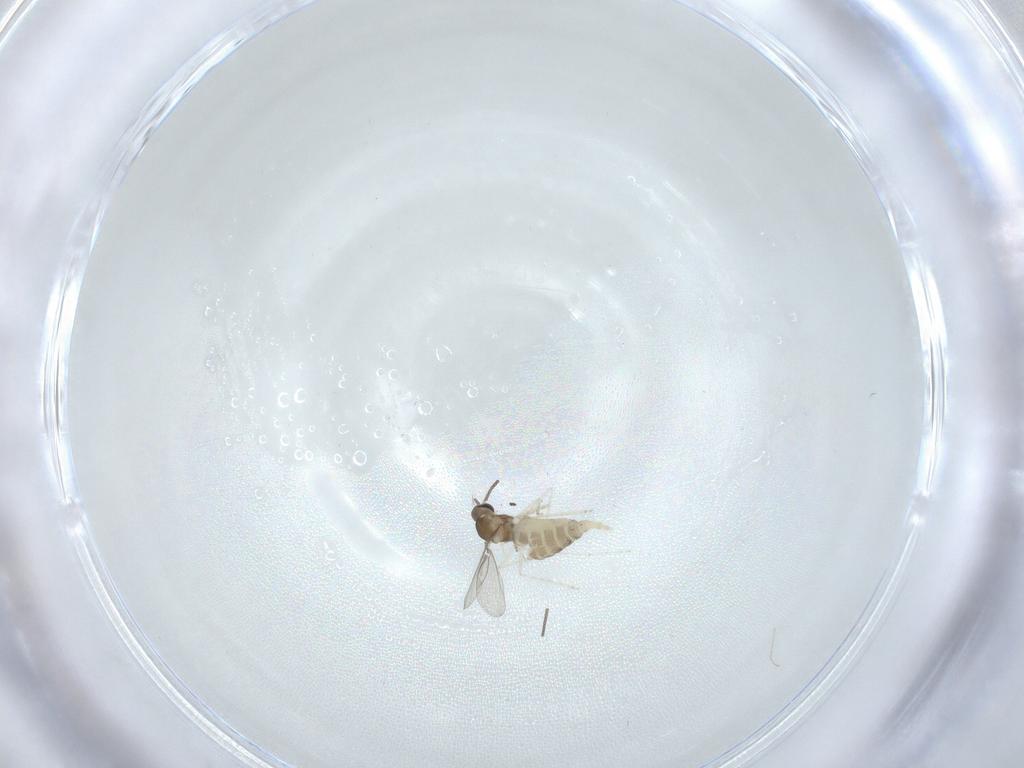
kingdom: Animalia
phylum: Arthropoda
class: Insecta
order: Diptera
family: Cecidomyiidae
